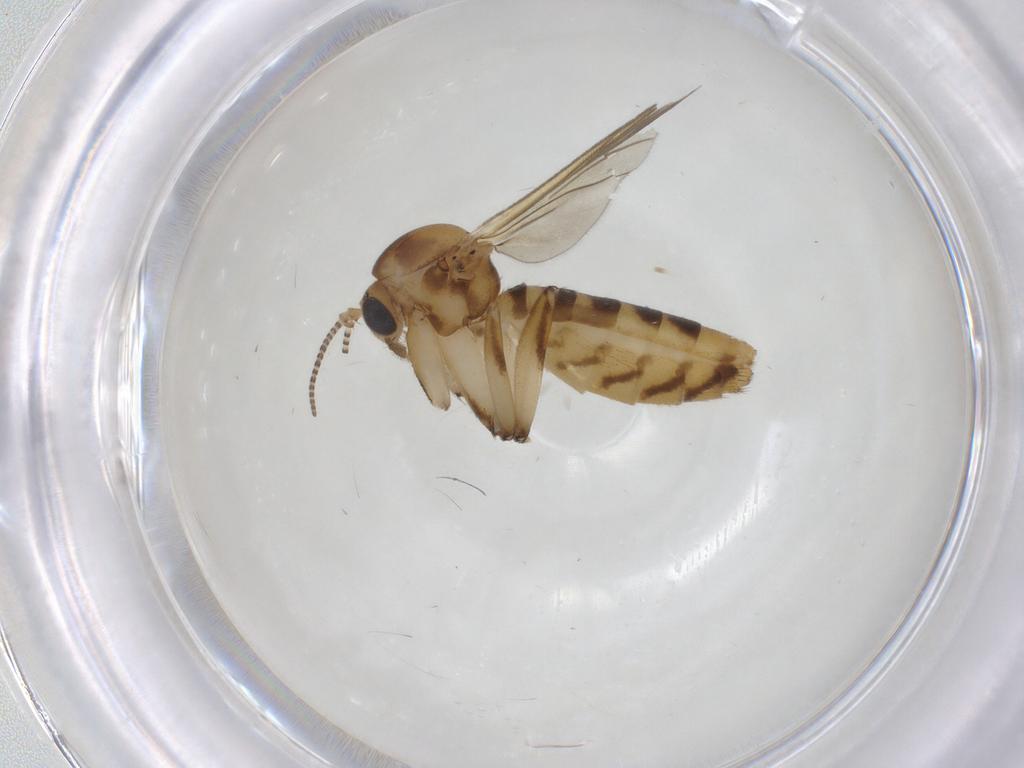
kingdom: Animalia
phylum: Arthropoda
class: Insecta
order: Diptera
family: Mycetophilidae
